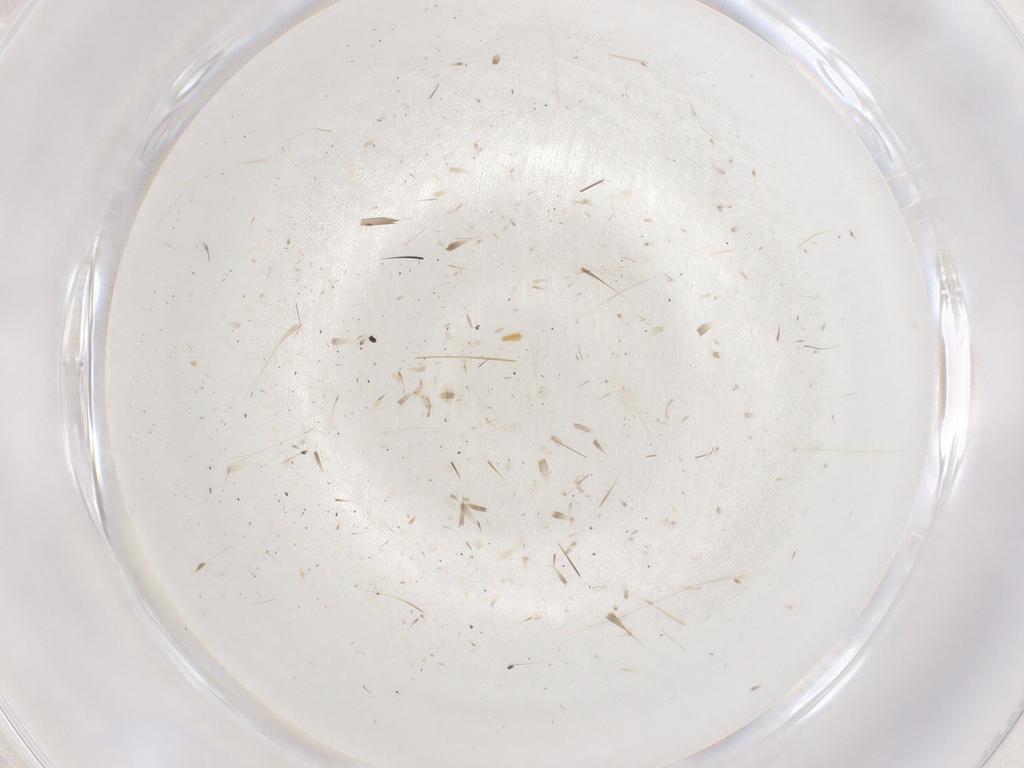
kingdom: Animalia
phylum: Arthropoda
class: Insecta
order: Lepidoptera
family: Gelechiidae
